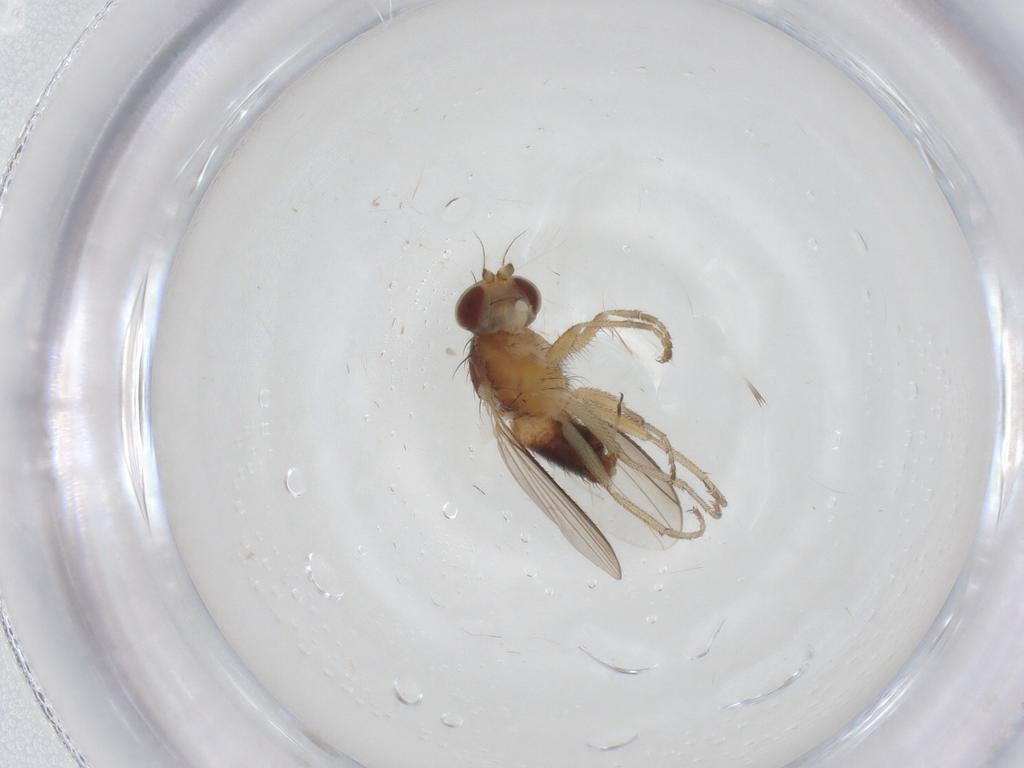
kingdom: Animalia
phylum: Arthropoda
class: Insecta
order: Diptera
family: Heleomyzidae
